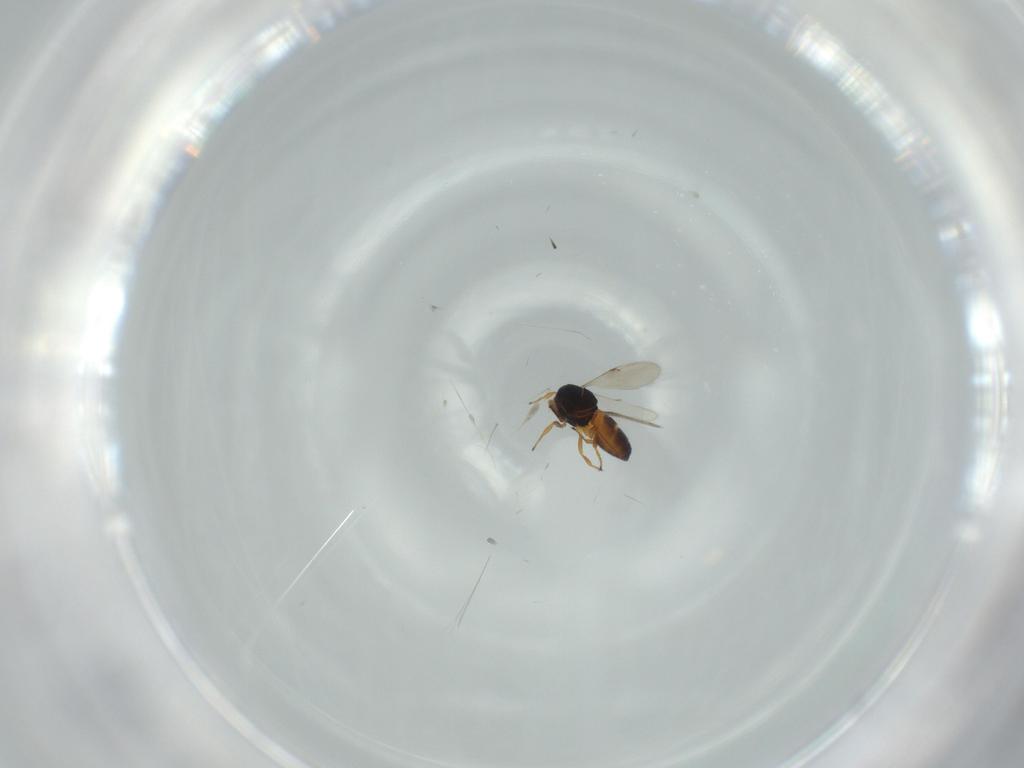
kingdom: Animalia
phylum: Arthropoda
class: Insecta
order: Hymenoptera
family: Scelionidae
